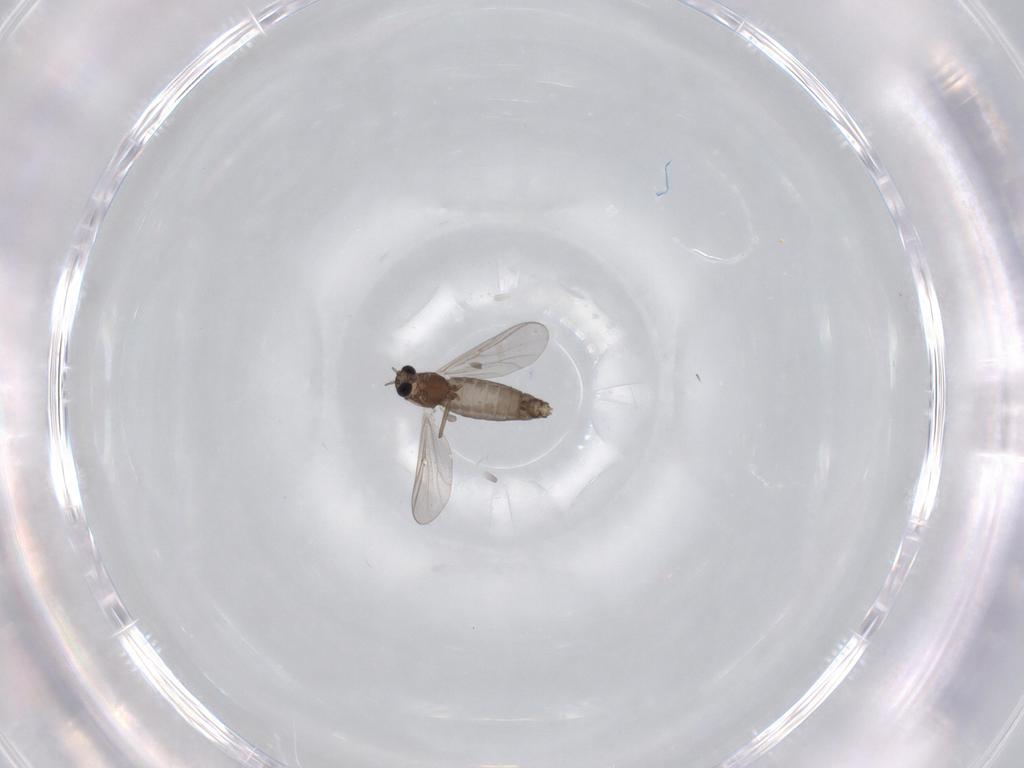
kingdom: Animalia
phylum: Arthropoda
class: Insecta
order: Diptera
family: Chironomidae
